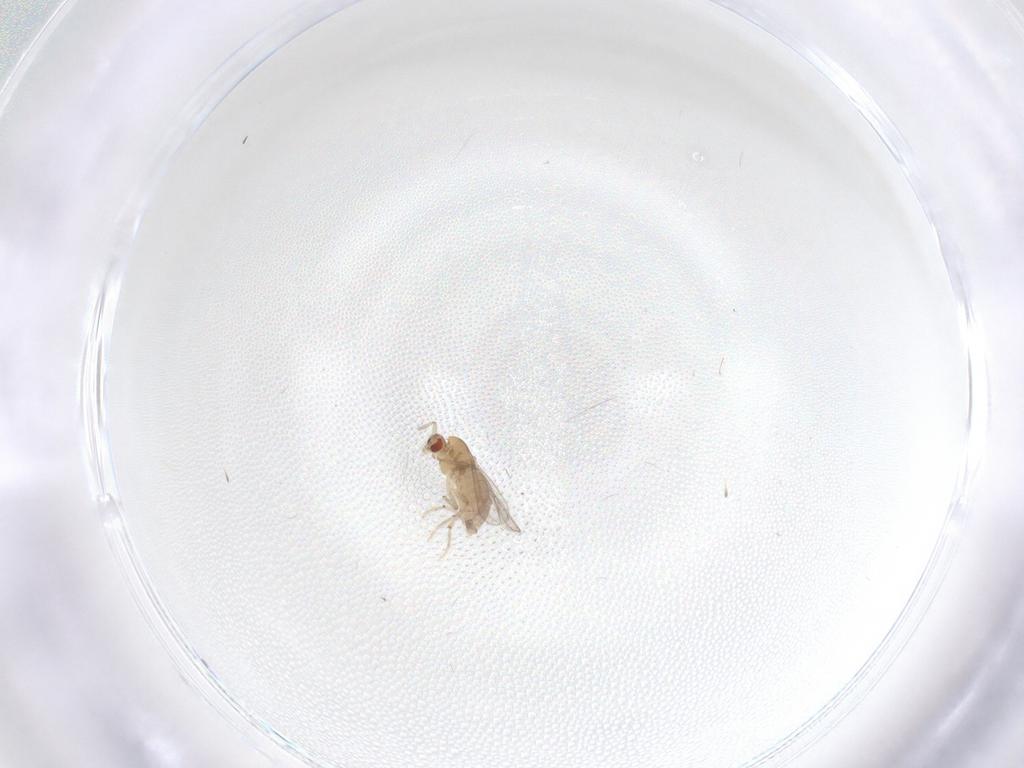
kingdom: Animalia
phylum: Arthropoda
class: Insecta
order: Diptera
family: Chironomidae
